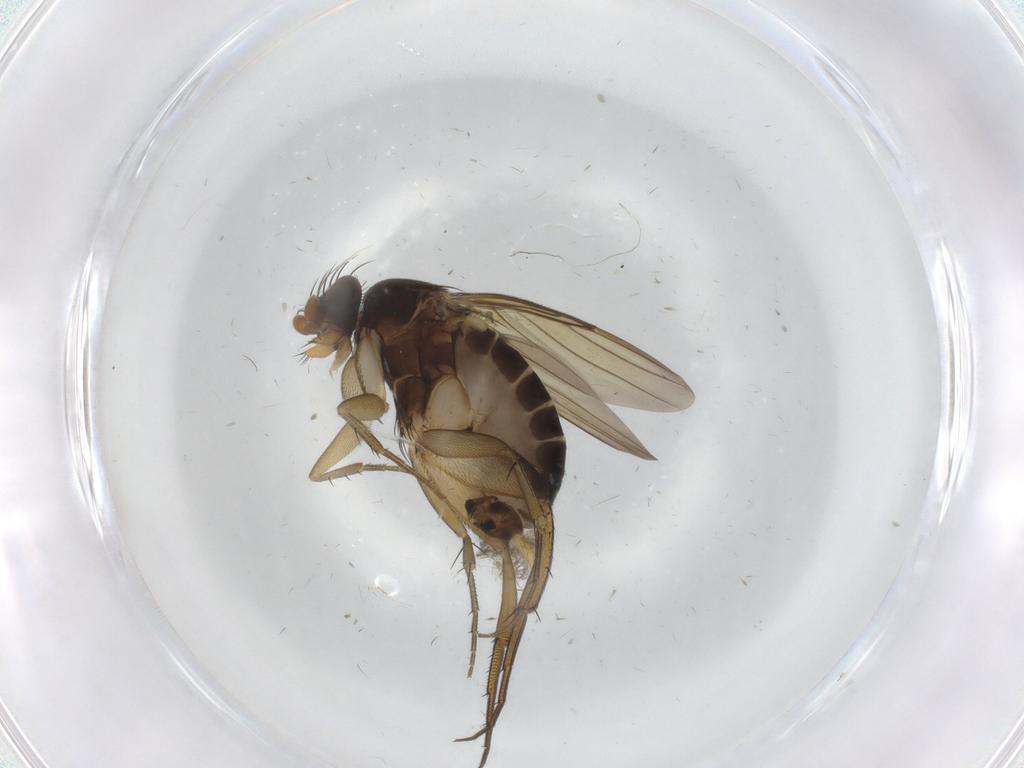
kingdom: Animalia
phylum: Arthropoda
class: Insecta
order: Diptera
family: Phoridae
